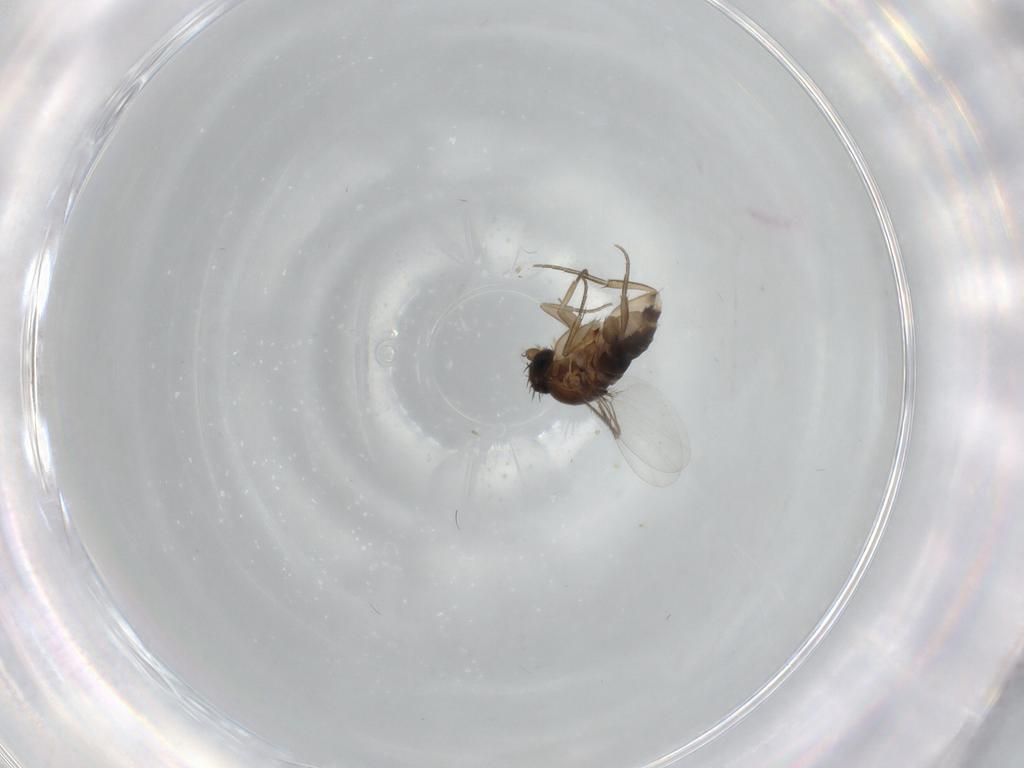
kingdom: Animalia
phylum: Arthropoda
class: Insecta
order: Diptera
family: Phoridae
